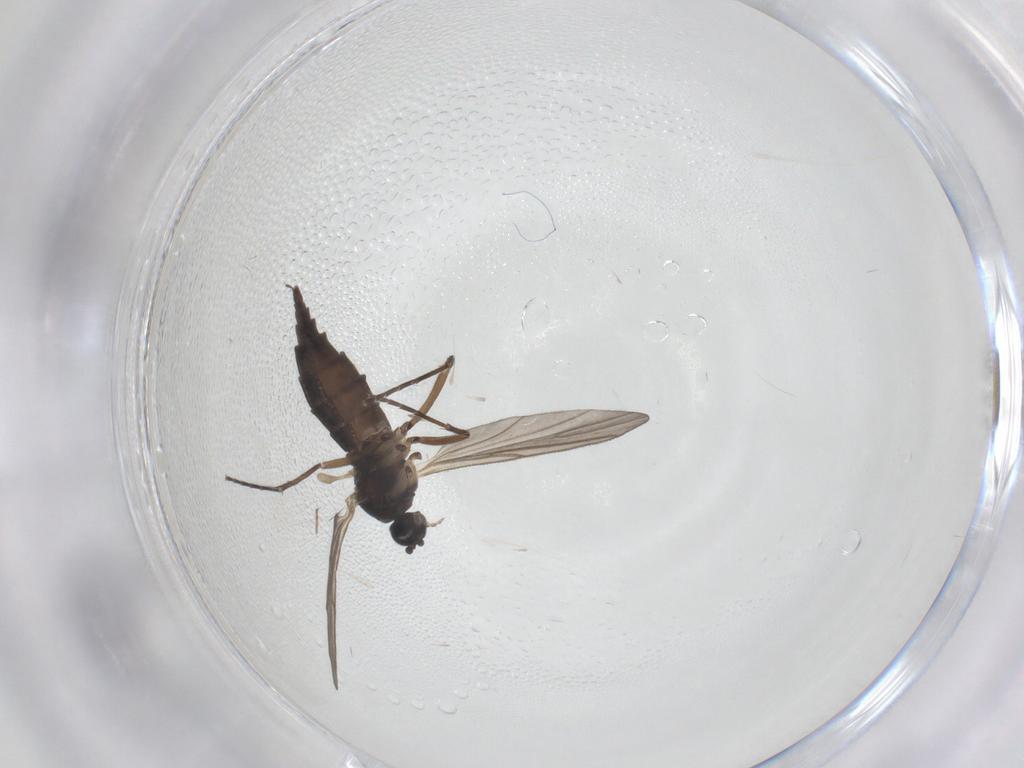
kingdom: Animalia
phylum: Arthropoda
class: Insecta
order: Diptera
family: Sciaridae
